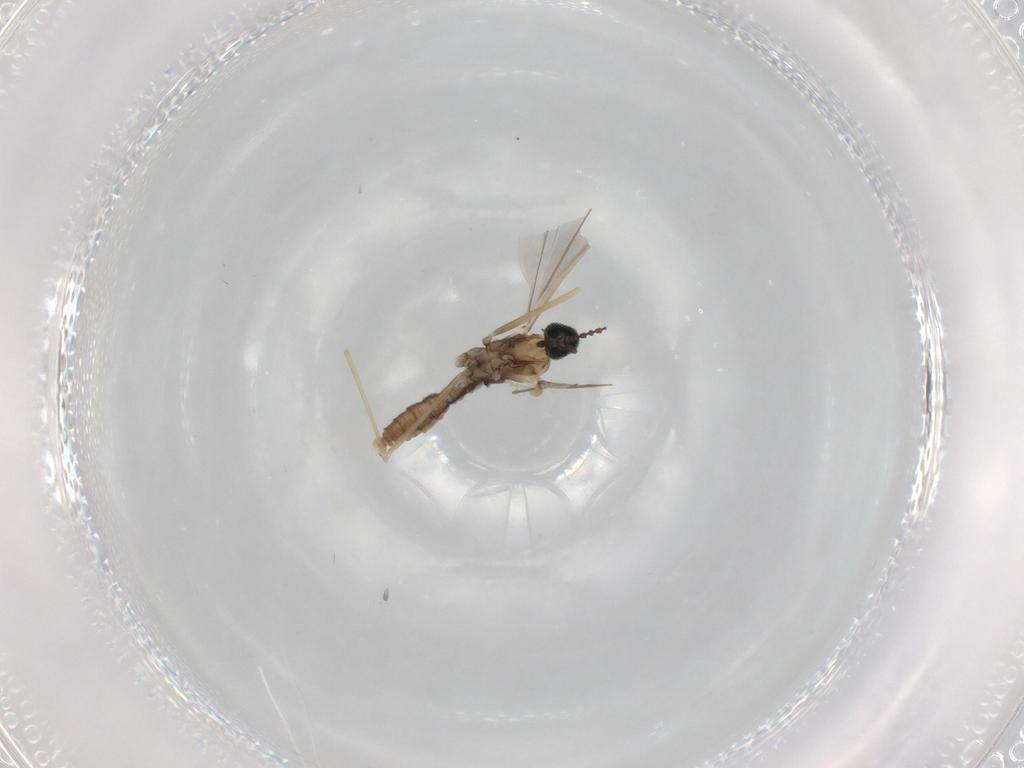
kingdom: Animalia
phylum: Arthropoda
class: Insecta
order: Diptera
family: Cecidomyiidae
